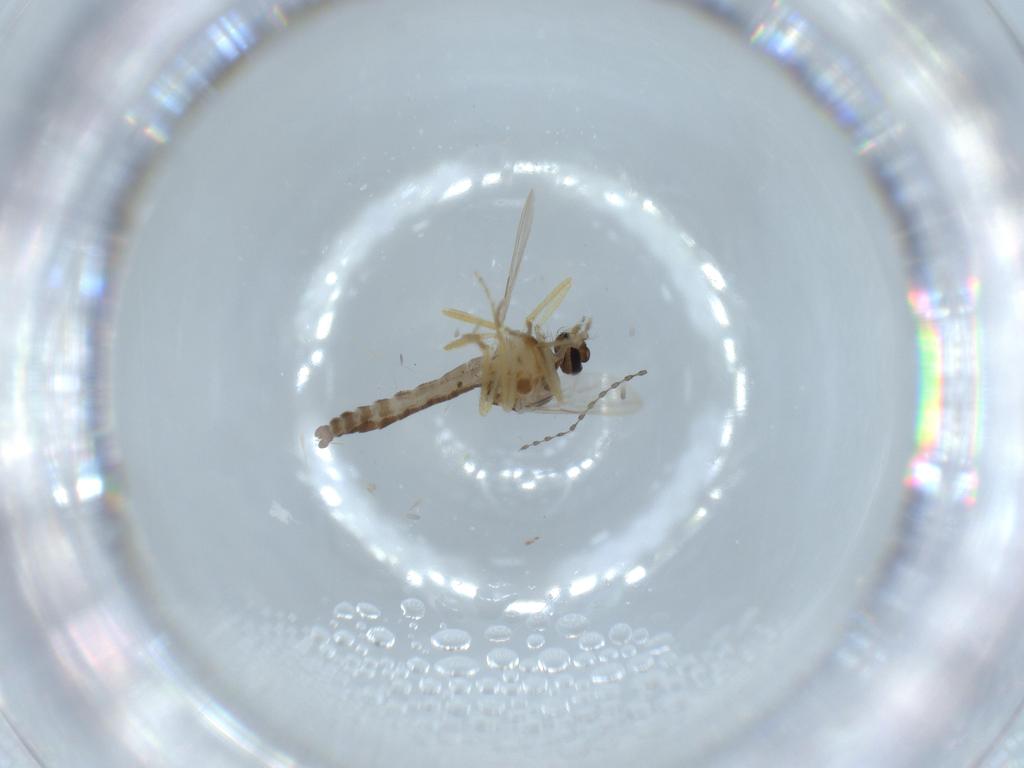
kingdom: Animalia
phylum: Arthropoda
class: Insecta
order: Diptera
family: Ceratopogonidae
